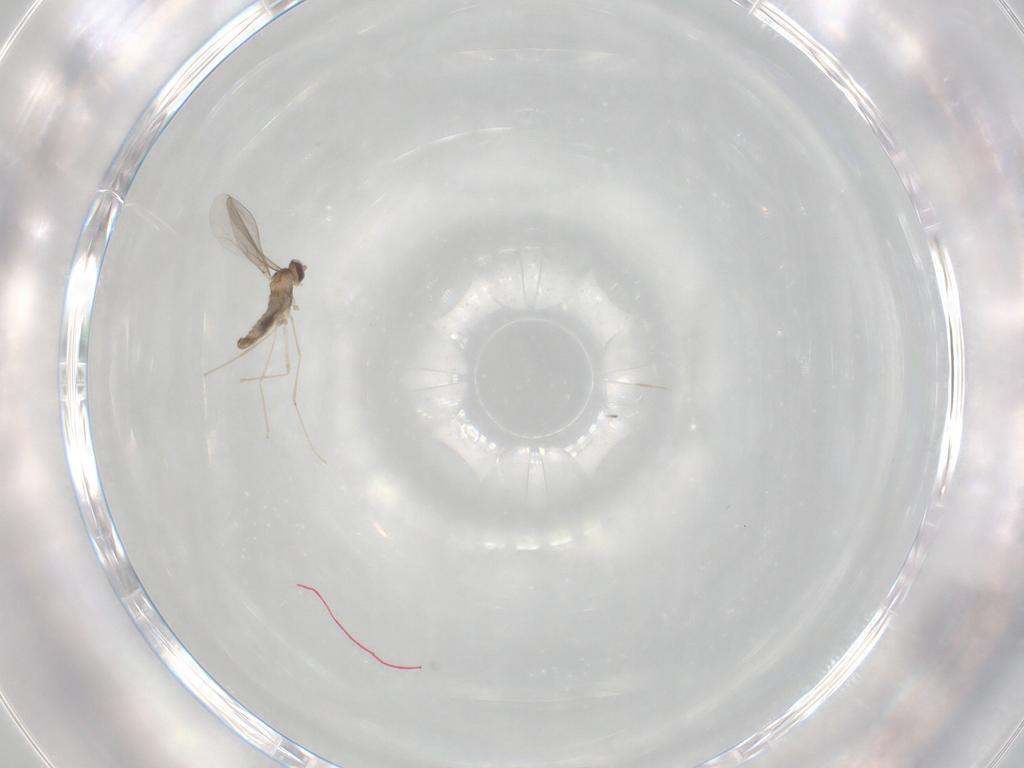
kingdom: Animalia
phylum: Arthropoda
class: Insecta
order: Diptera
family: Cecidomyiidae
